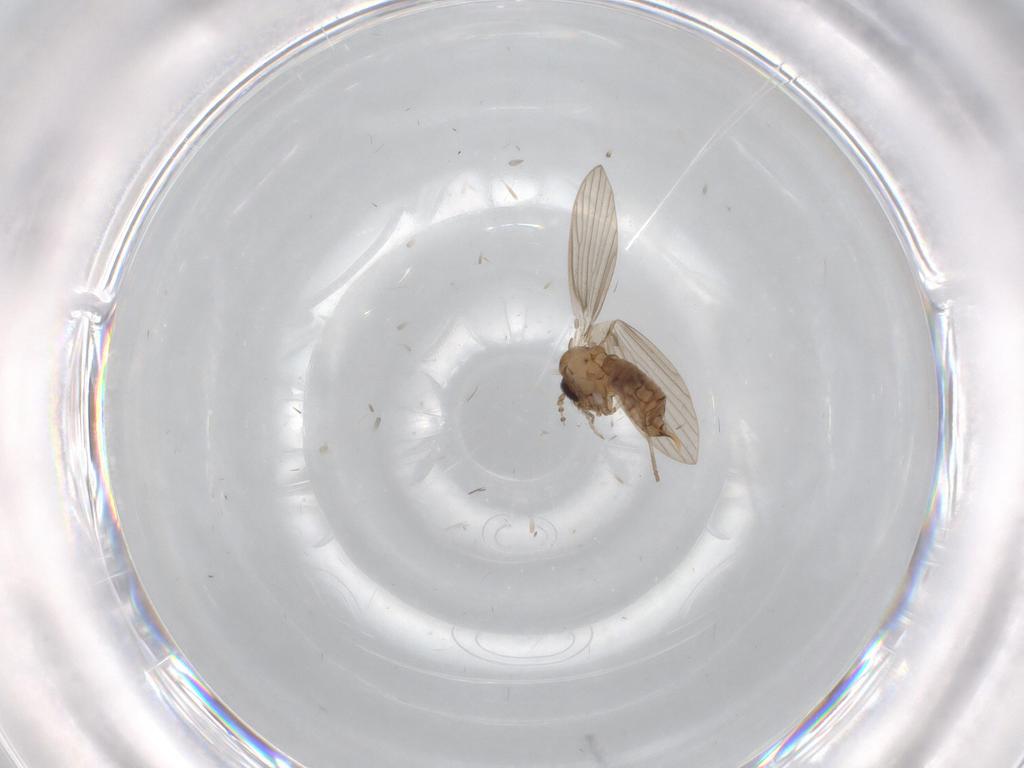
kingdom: Animalia
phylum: Arthropoda
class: Insecta
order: Diptera
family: Psychodidae
